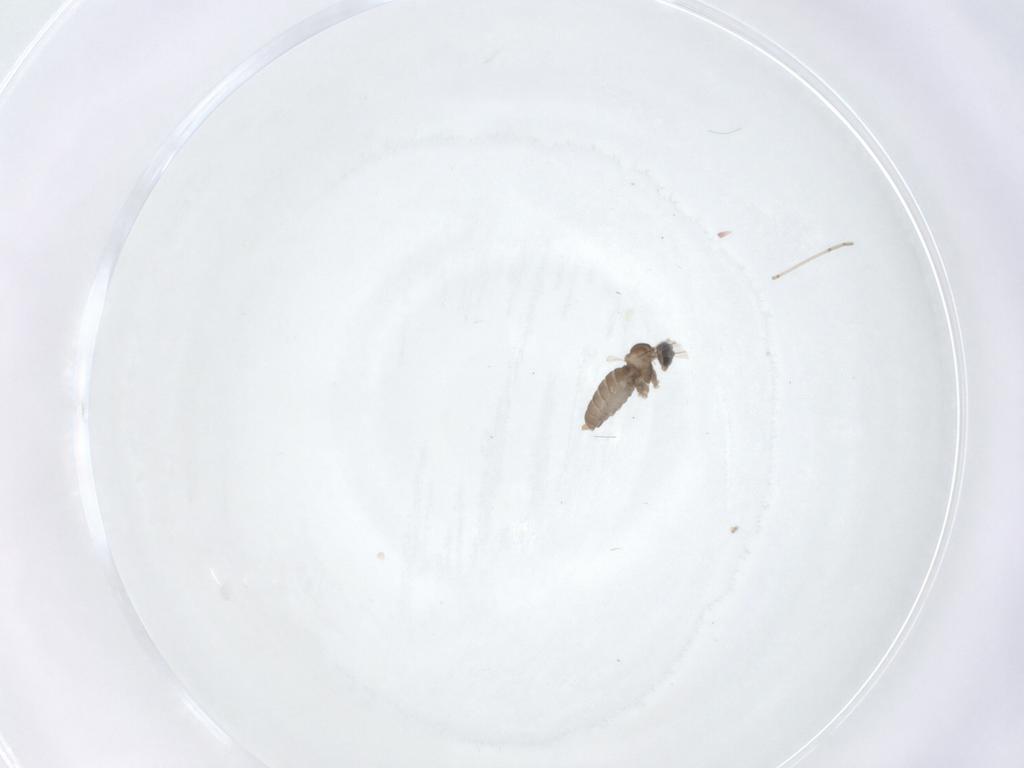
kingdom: Animalia
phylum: Arthropoda
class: Insecta
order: Diptera
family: Cecidomyiidae
